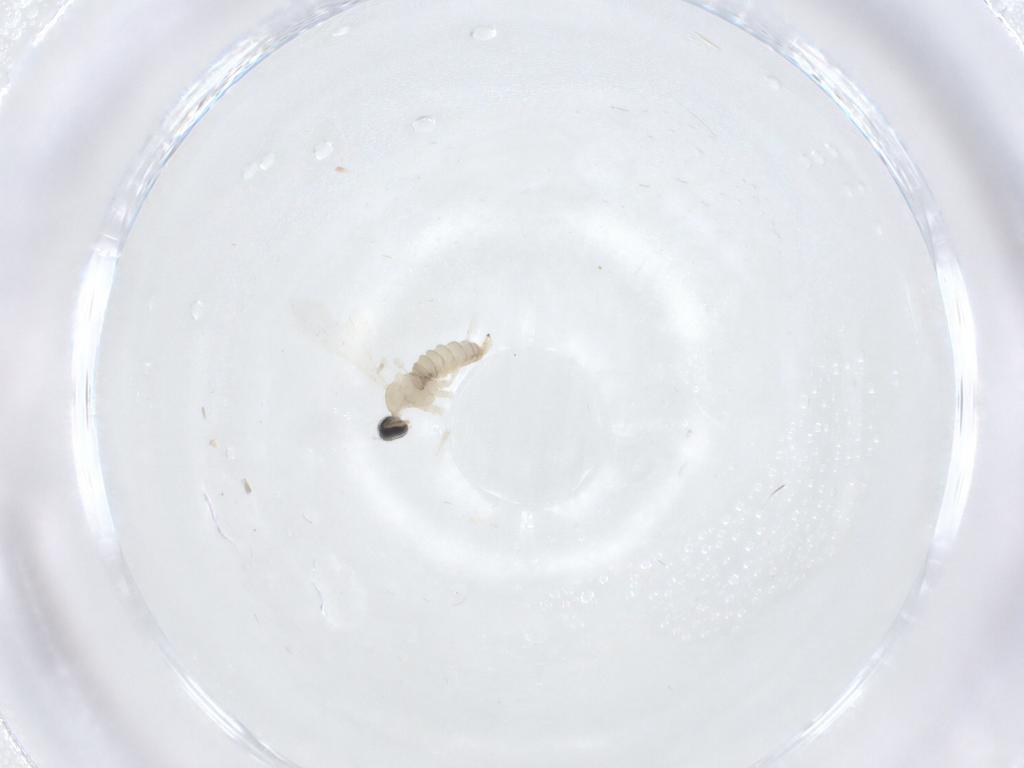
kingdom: Animalia
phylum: Arthropoda
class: Insecta
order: Diptera
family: Cecidomyiidae
